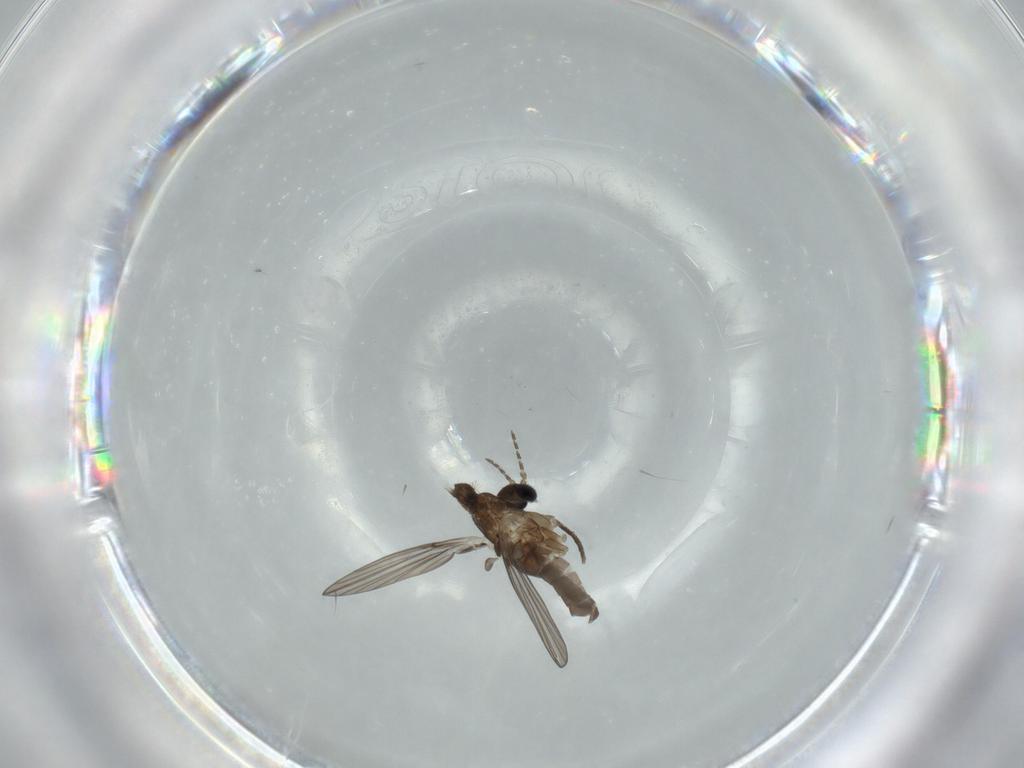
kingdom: Animalia
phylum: Arthropoda
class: Insecta
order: Diptera
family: Psychodidae
